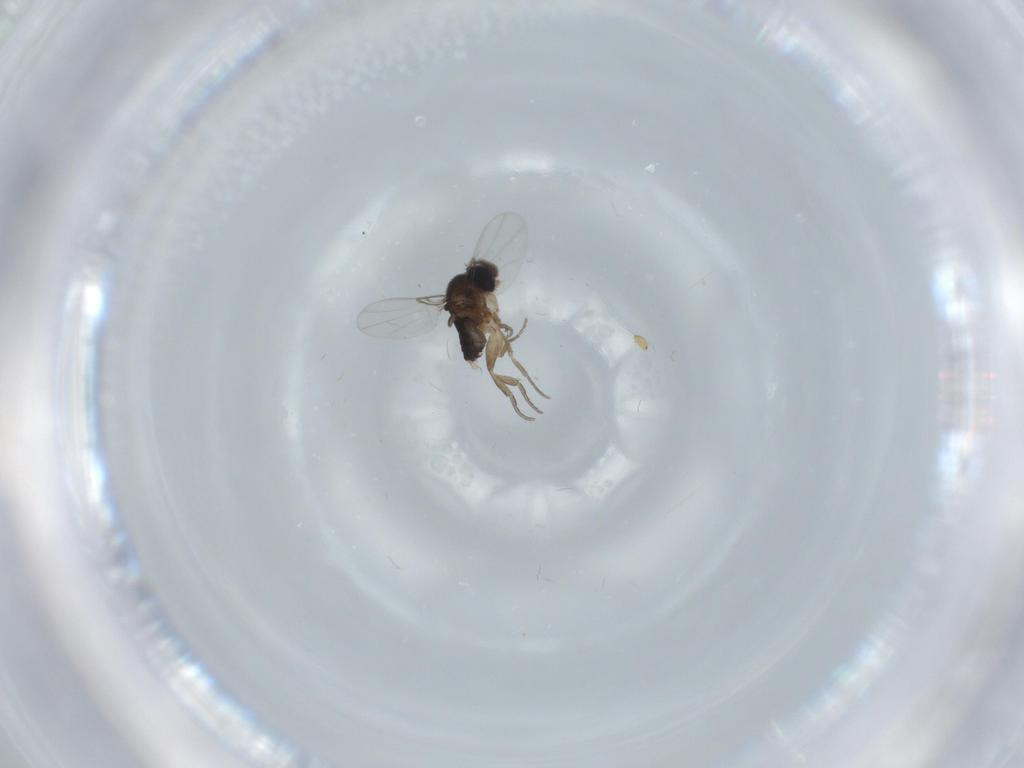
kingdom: Animalia
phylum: Arthropoda
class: Insecta
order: Diptera
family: Phoridae
